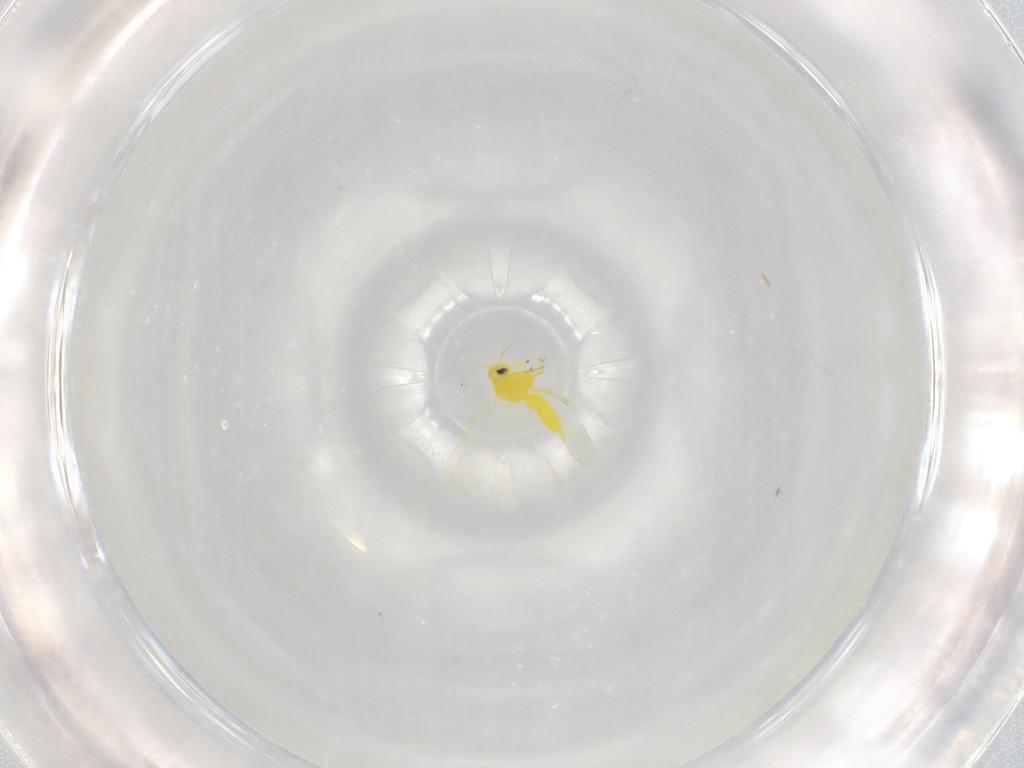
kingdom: Animalia
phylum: Arthropoda
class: Insecta
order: Hemiptera
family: Aleyrodidae
